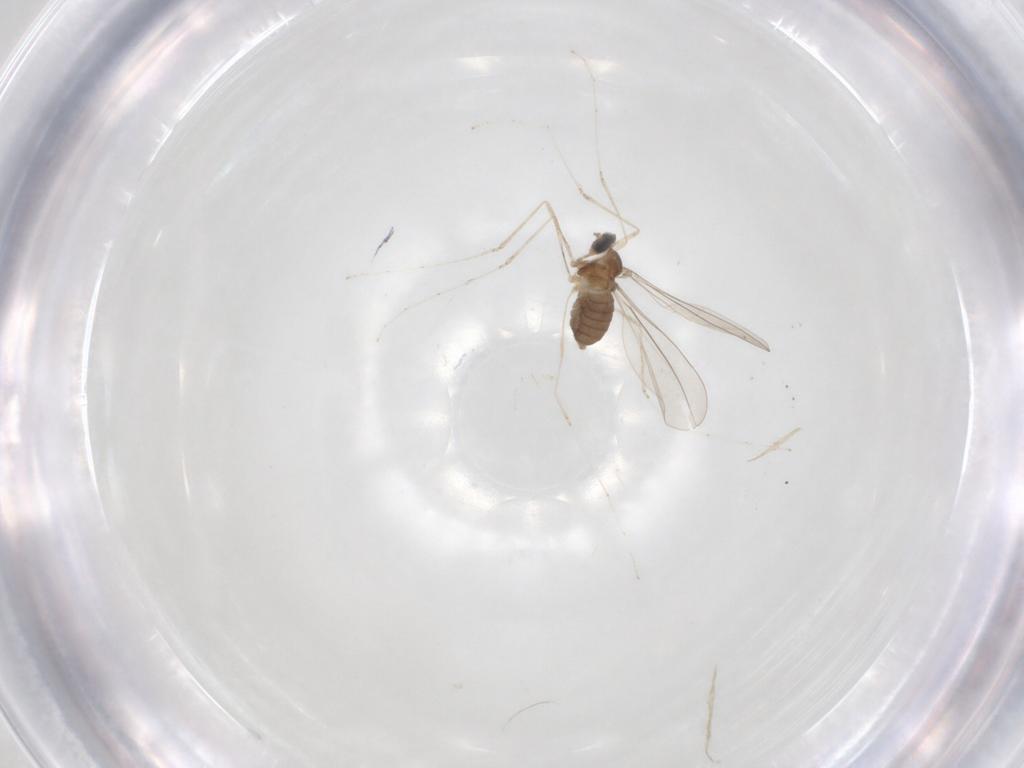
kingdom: Animalia
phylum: Arthropoda
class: Insecta
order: Diptera
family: Cecidomyiidae
